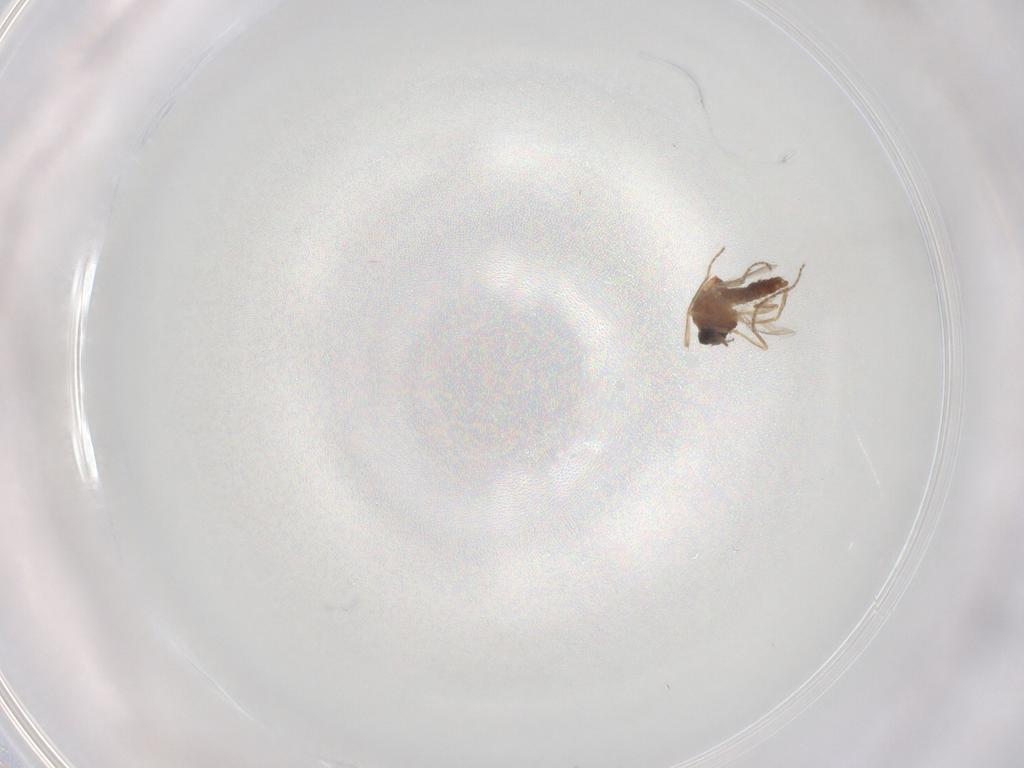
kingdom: Animalia
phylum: Arthropoda
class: Insecta
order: Diptera
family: Ceratopogonidae
